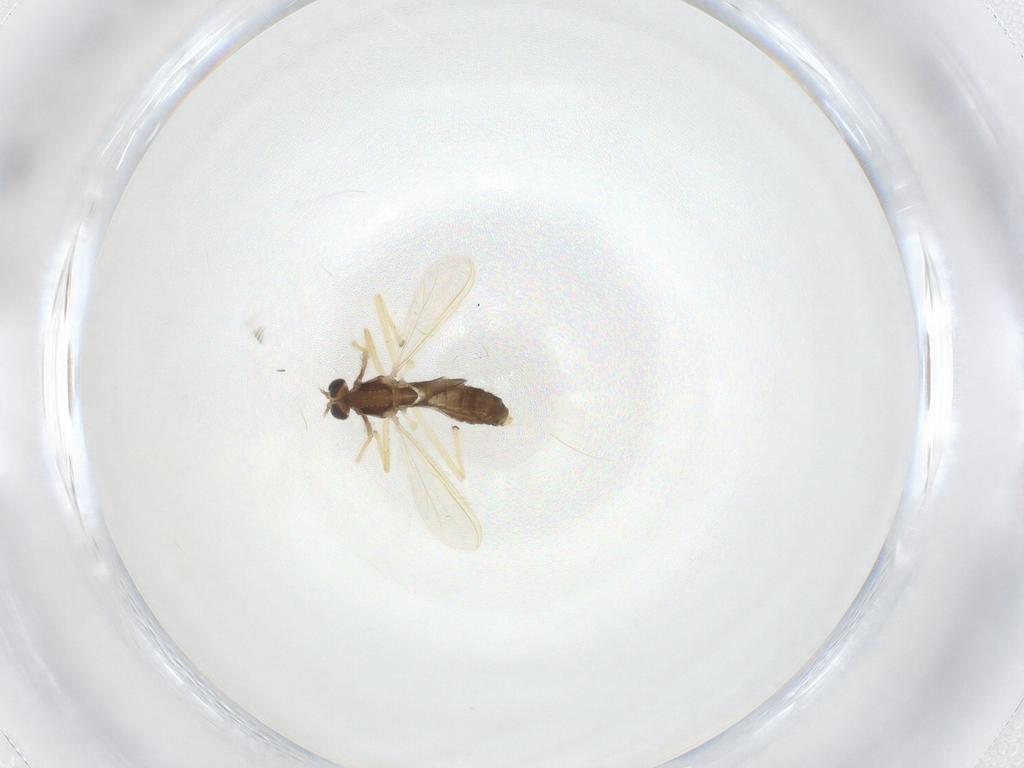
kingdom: Animalia
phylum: Arthropoda
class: Insecta
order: Diptera
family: Chironomidae
